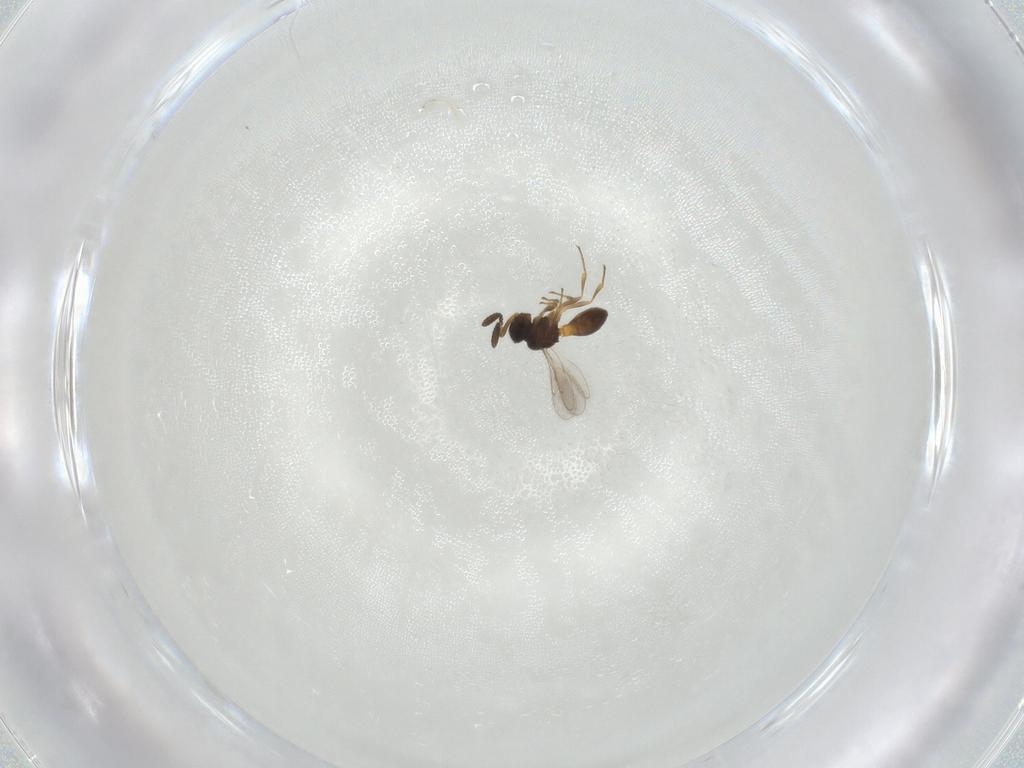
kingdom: Animalia
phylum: Arthropoda
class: Insecta
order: Hymenoptera
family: Scelionidae
